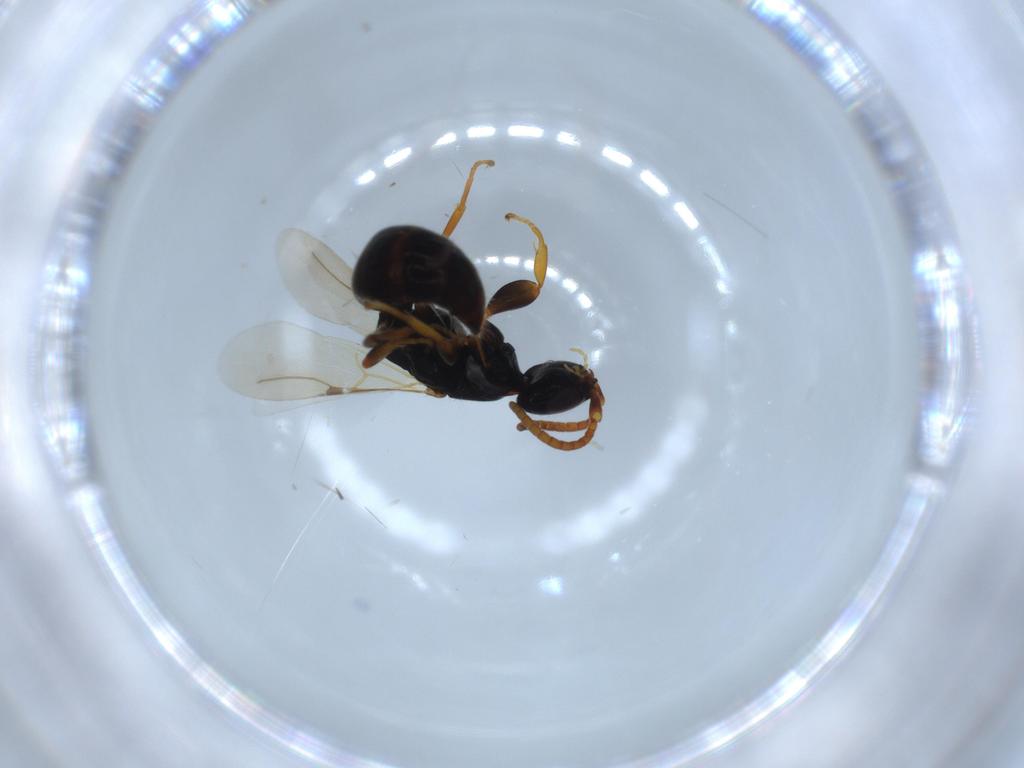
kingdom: Animalia
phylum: Arthropoda
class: Insecta
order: Hymenoptera
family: Bethylidae
